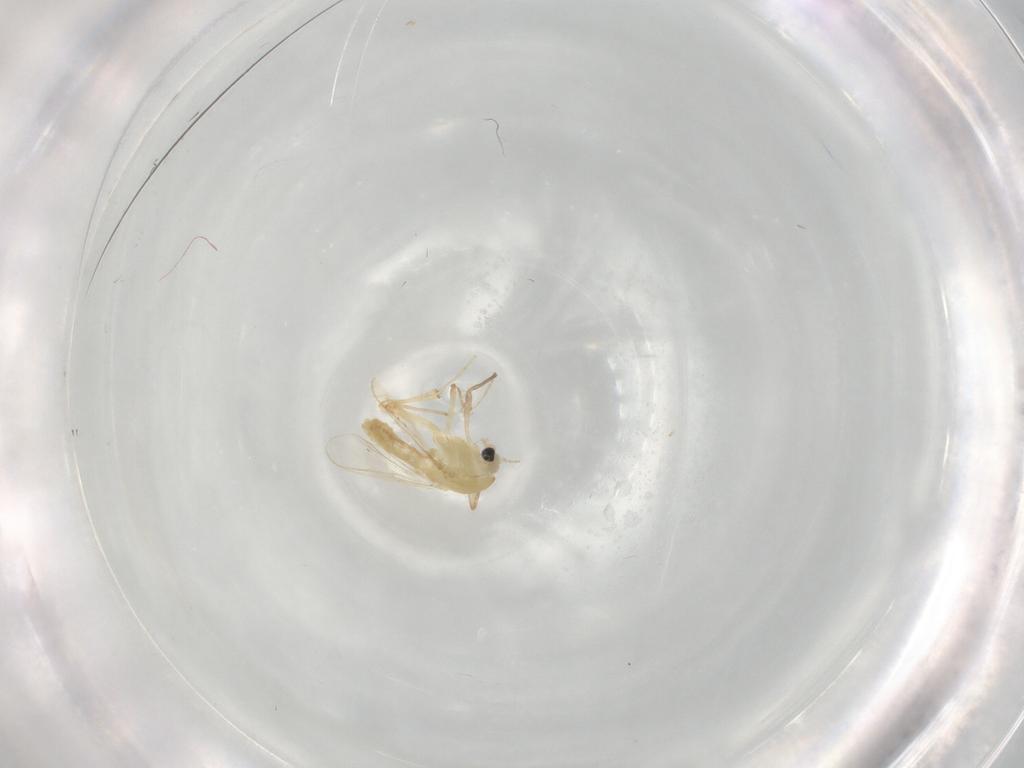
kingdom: Animalia
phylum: Arthropoda
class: Insecta
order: Diptera
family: Chironomidae
